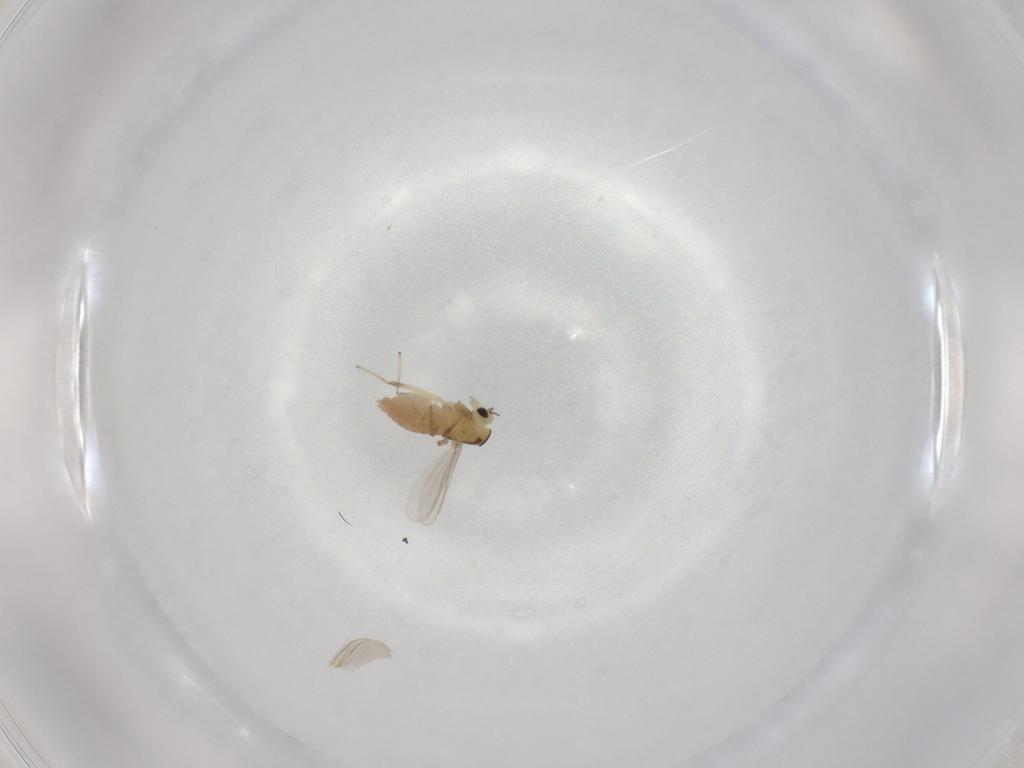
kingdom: Animalia
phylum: Arthropoda
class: Insecta
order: Diptera
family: Chironomidae
